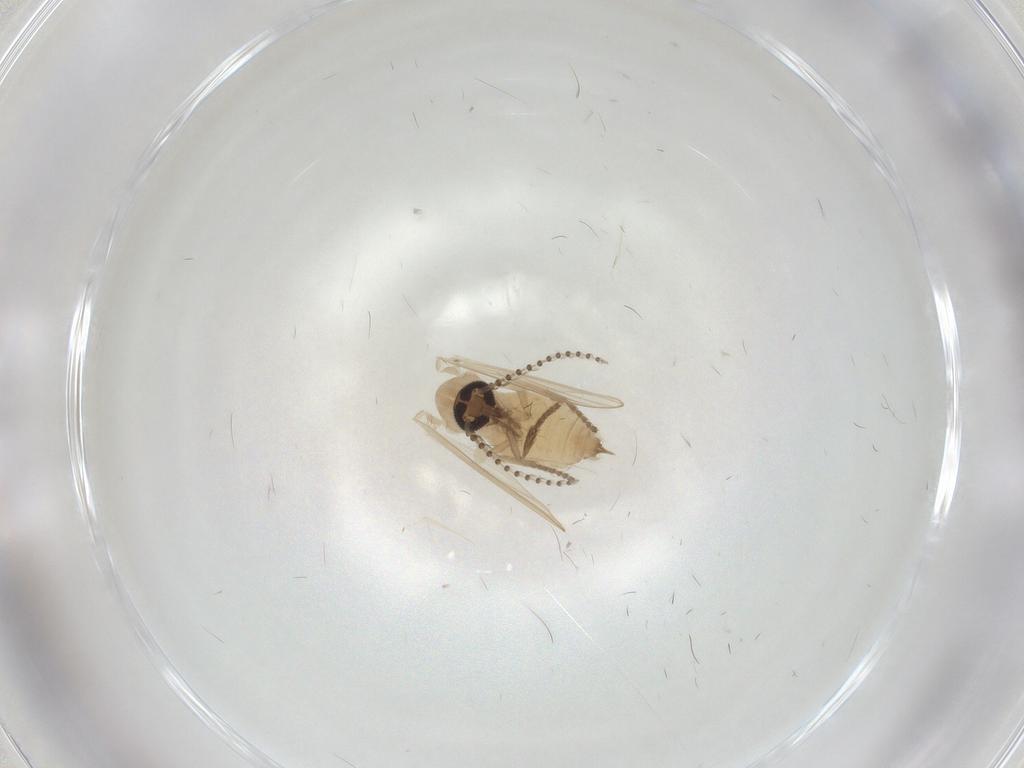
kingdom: Animalia
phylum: Arthropoda
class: Insecta
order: Diptera
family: Psychodidae
